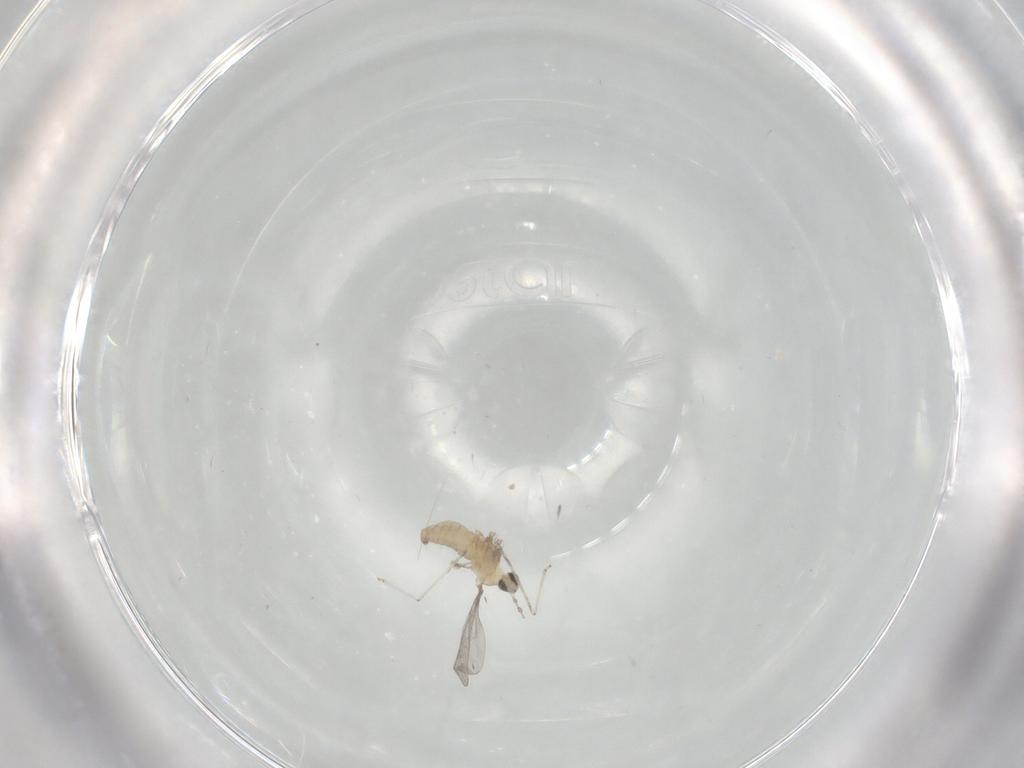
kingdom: Animalia
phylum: Arthropoda
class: Insecta
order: Diptera
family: Cecidomyiidae
